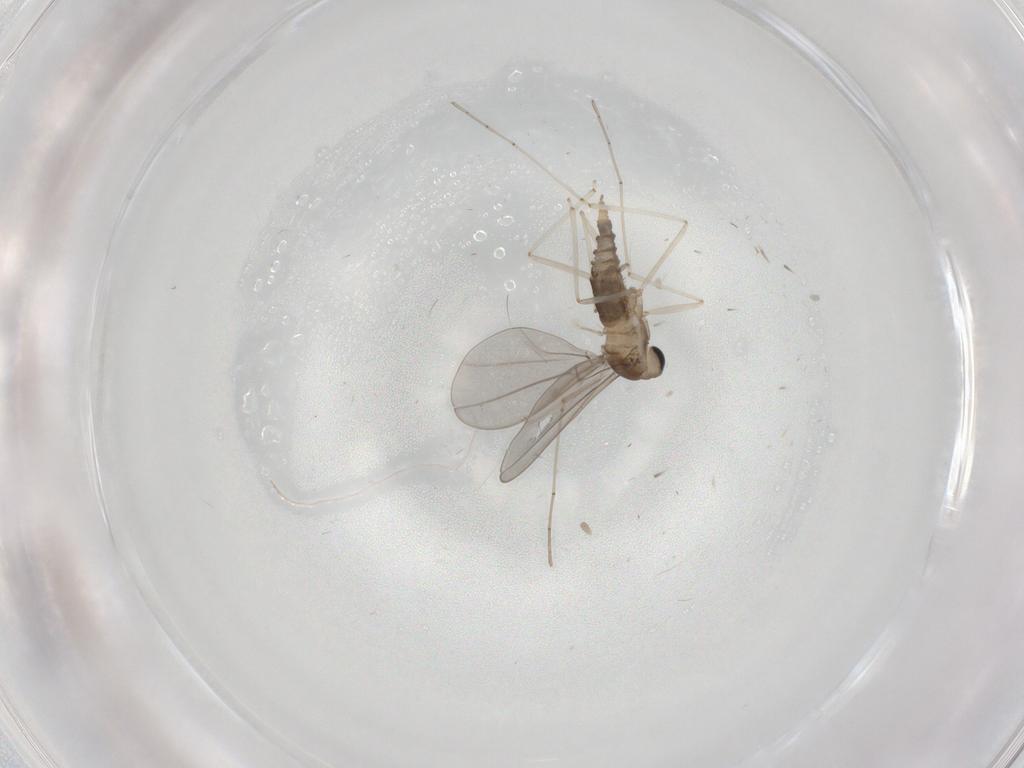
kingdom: Animalia
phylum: Arthropoda
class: Insecta
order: Diptera
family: Cecidomyiidae
